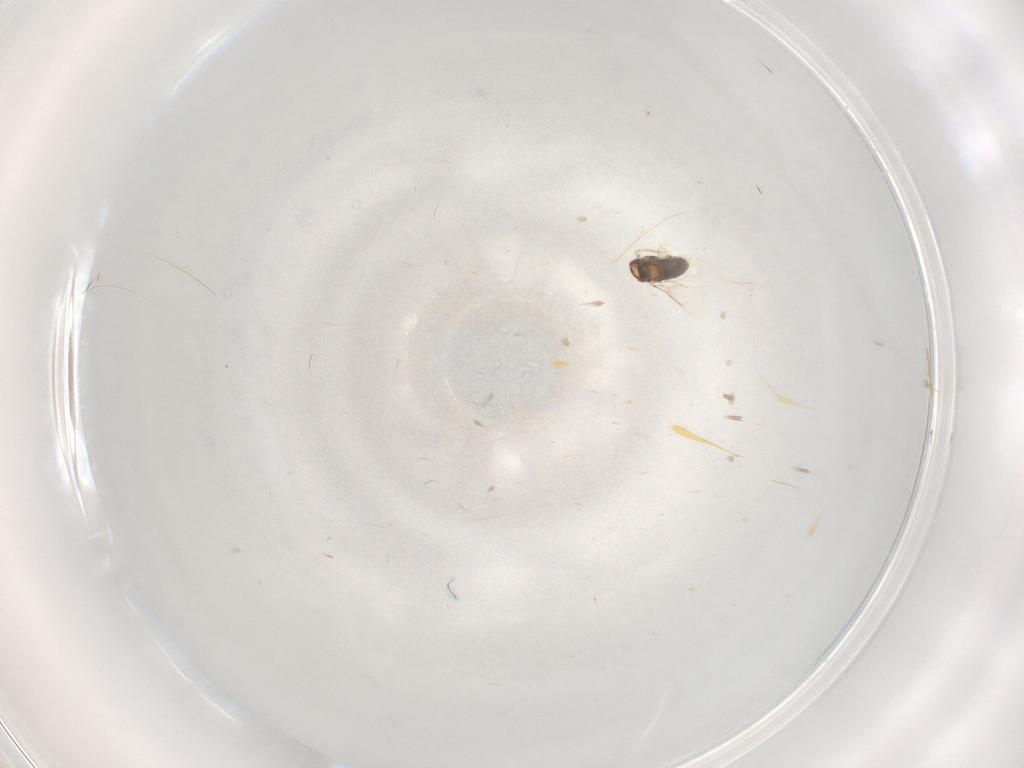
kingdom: Animalia
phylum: Arthropoda
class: Insecta
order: Hymenoptera
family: Aphelinidae
